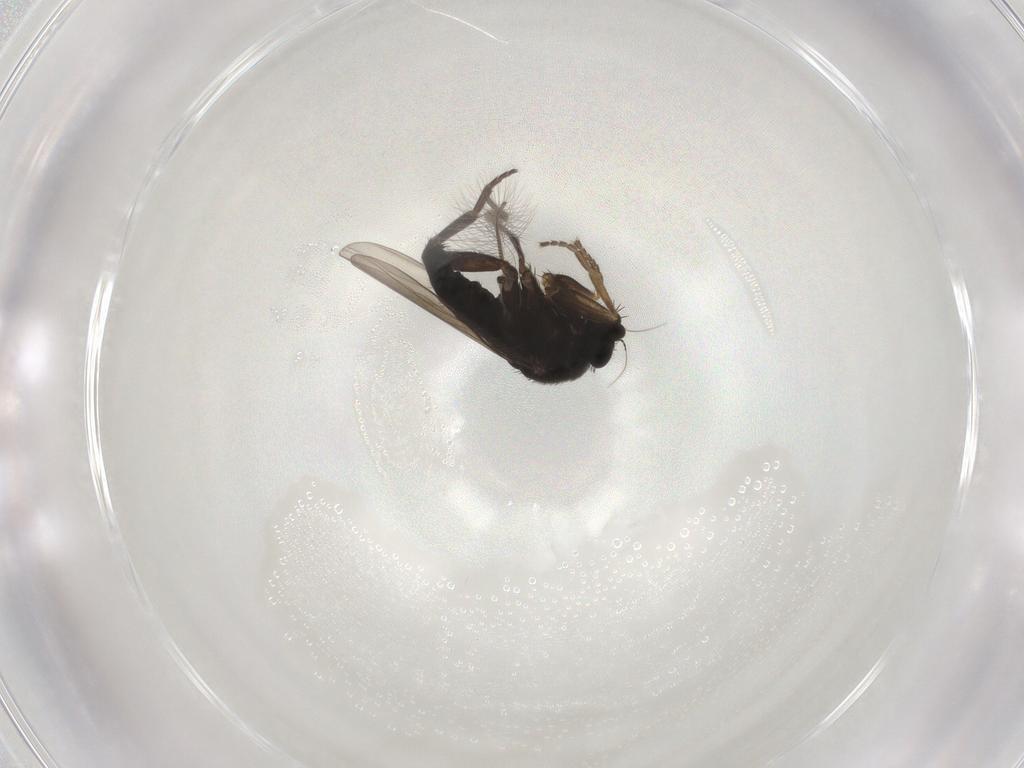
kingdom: Animalia
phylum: Arthropoda
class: Insecta
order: Diptera
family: Phoridae
